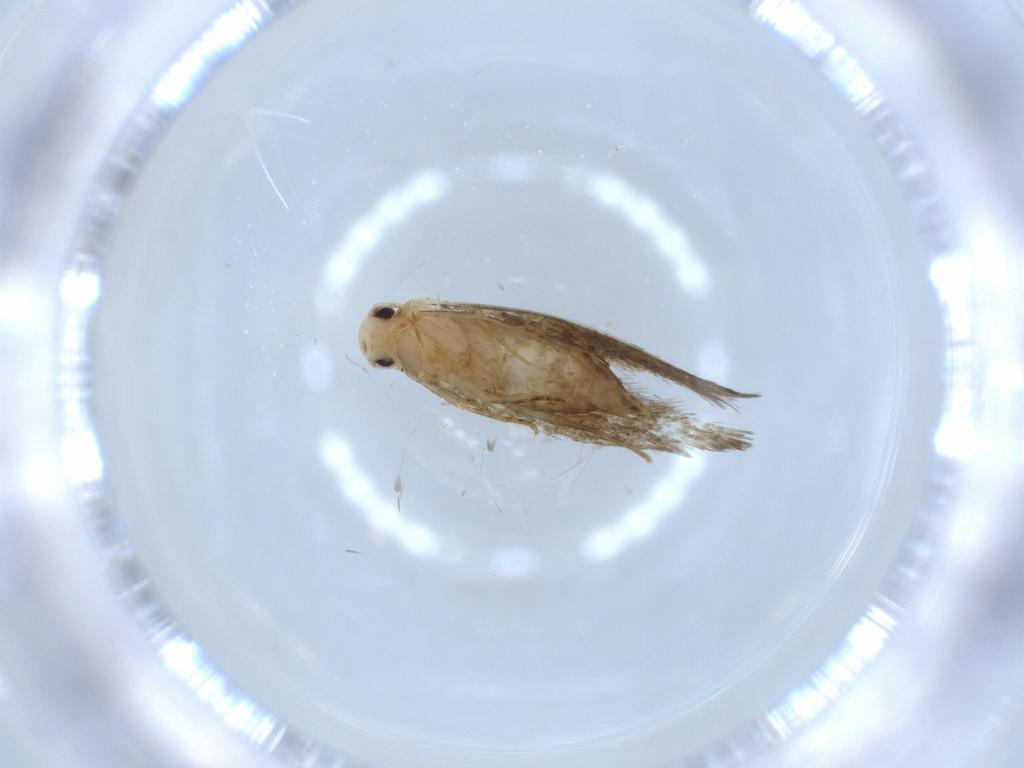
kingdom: Animalia
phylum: Arthropoda
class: Insecta
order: Lepidoptera
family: Tineidae
